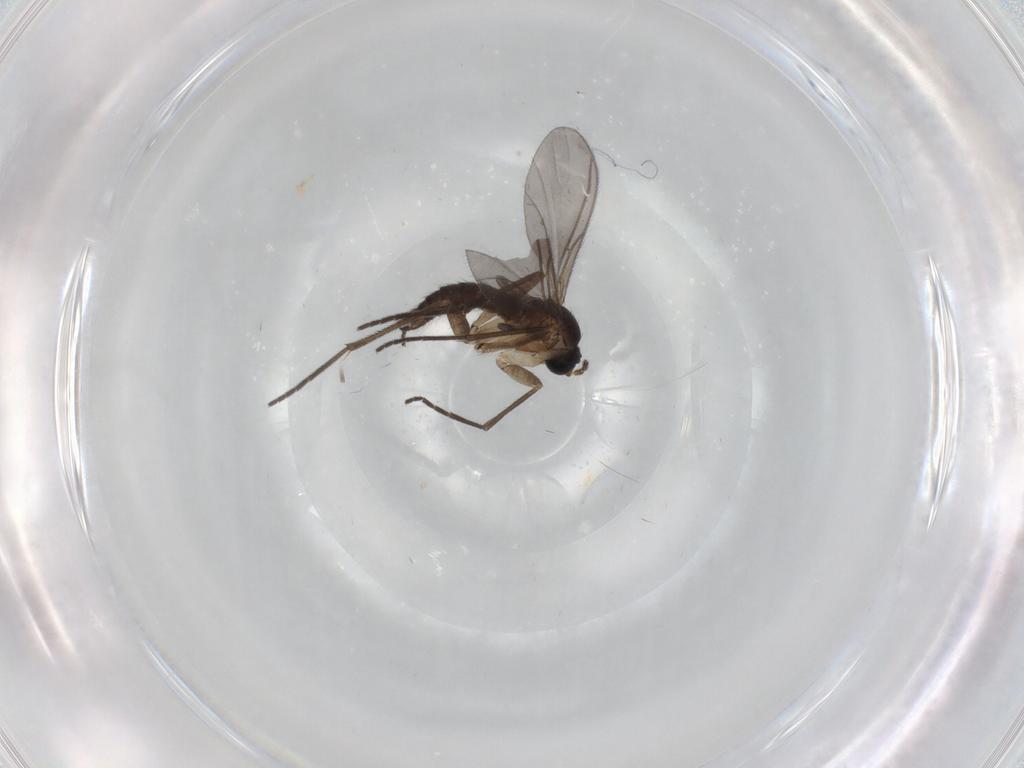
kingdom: Animalia
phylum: Arthropoda
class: Insecta
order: Diptera
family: Sciaridae
